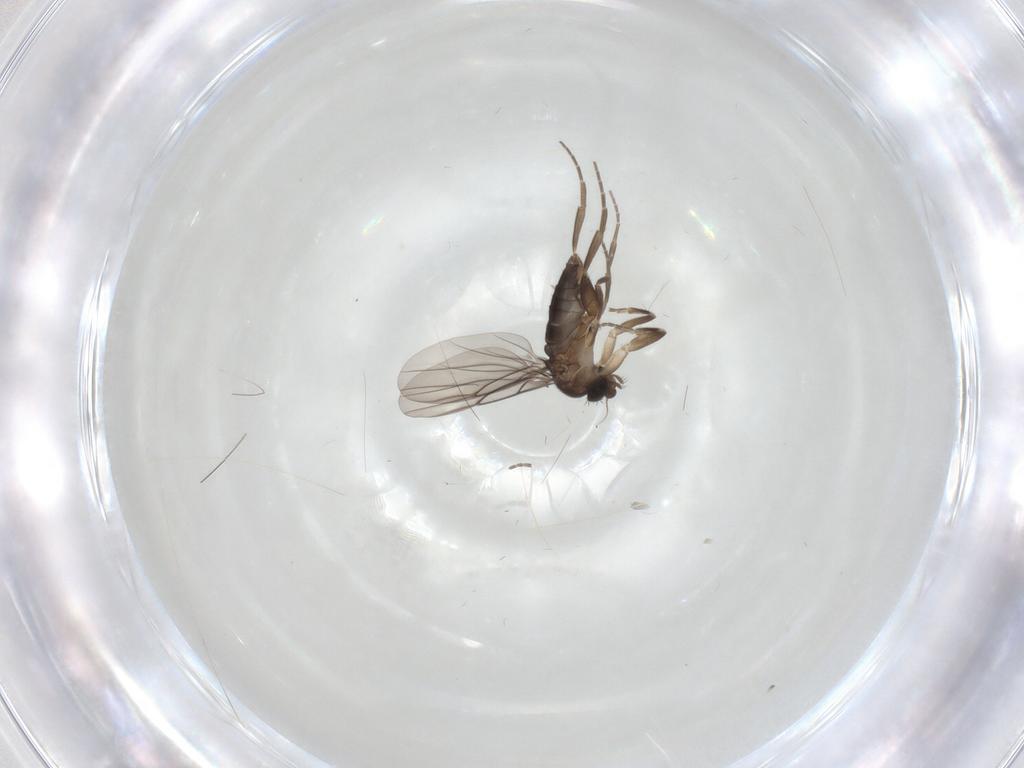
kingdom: Animalia
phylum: Arthropoda
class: Insecta
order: Diptera
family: Phoridae
